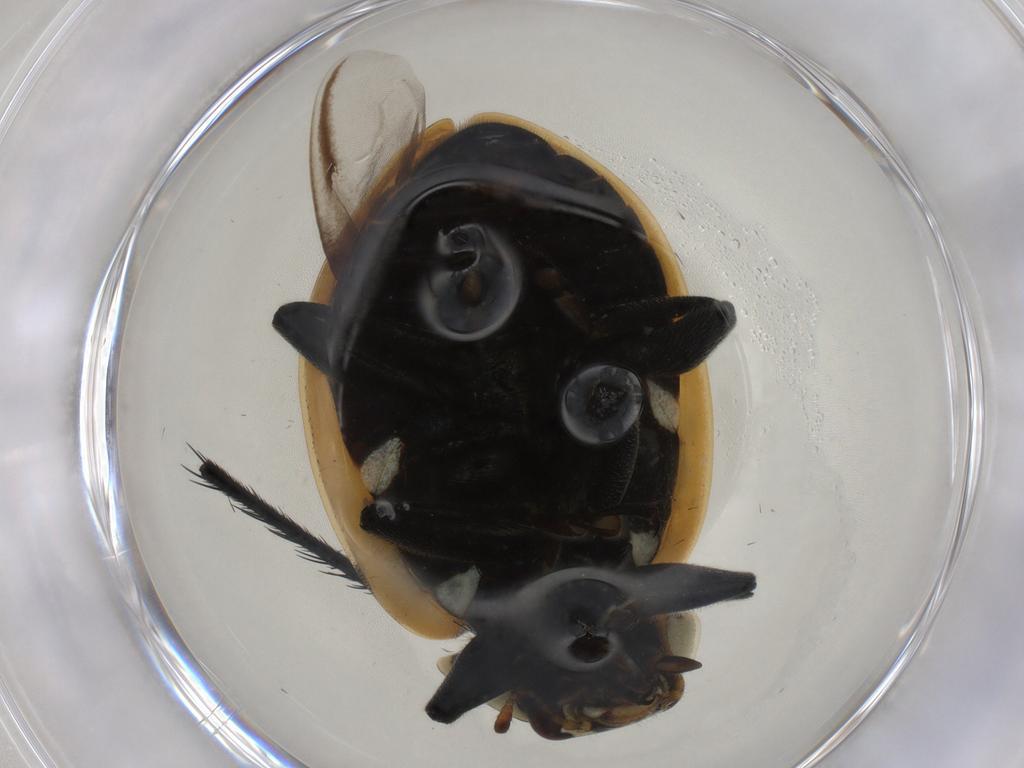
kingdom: Animalia
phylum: Arthropoda
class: Insecta
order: Coleoptera
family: Coccinellidae
